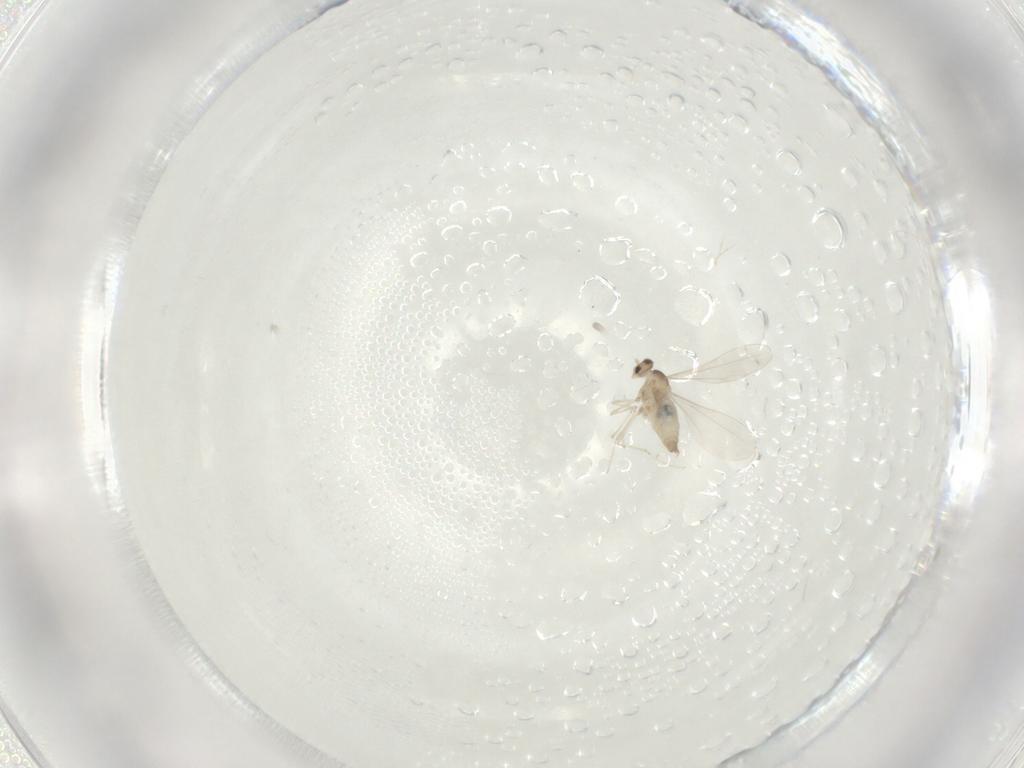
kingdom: Animalia
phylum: Arthropoda
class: Insecta
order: Diptera
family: Cecidomyiidae
